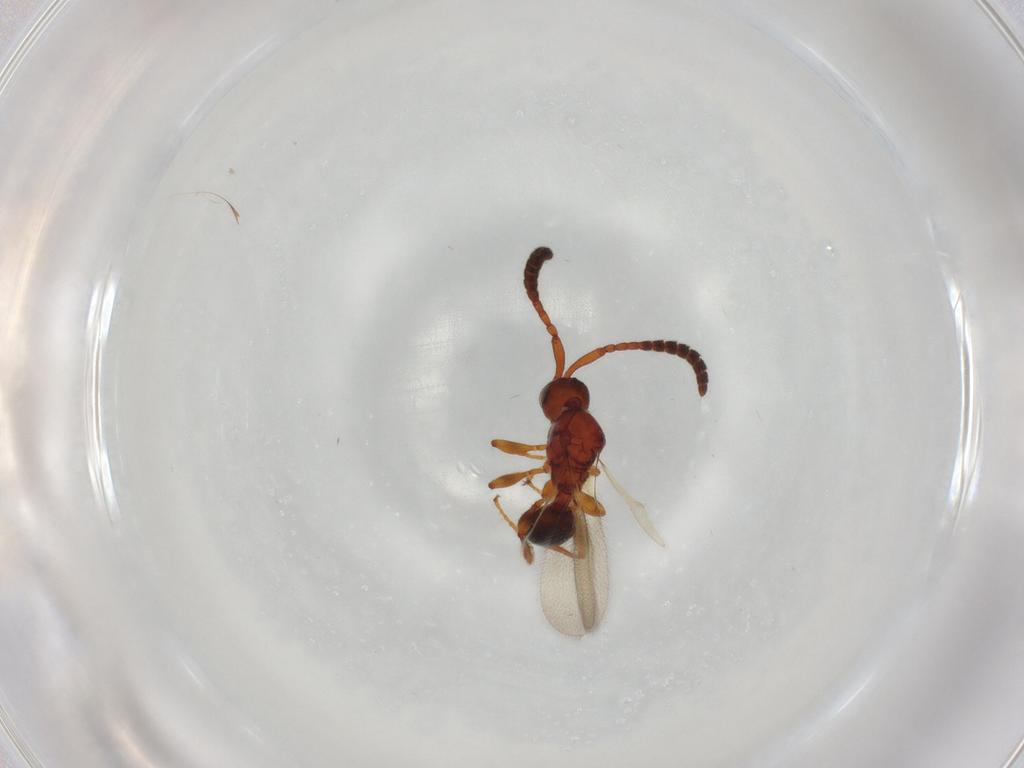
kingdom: Animalia
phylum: Arthropoda
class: Insecta
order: Hymenoptera
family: Diapriidae
